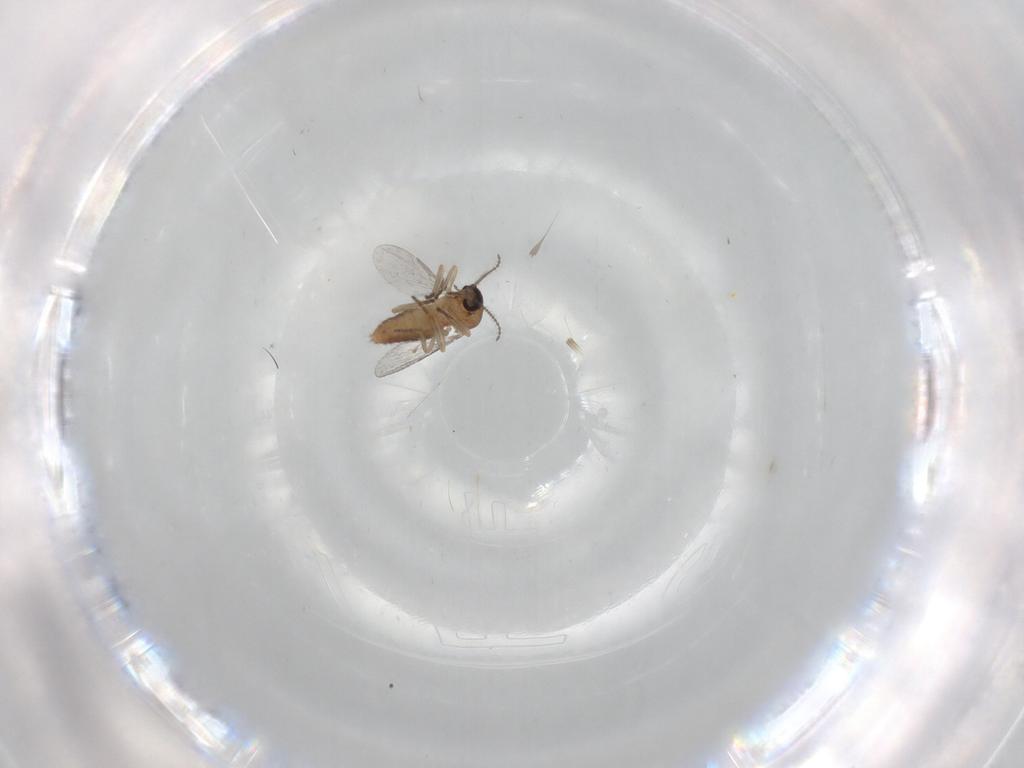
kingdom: Animalia
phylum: Arthropoda
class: Insecta
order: Diptera
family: Ceratopogonidae
